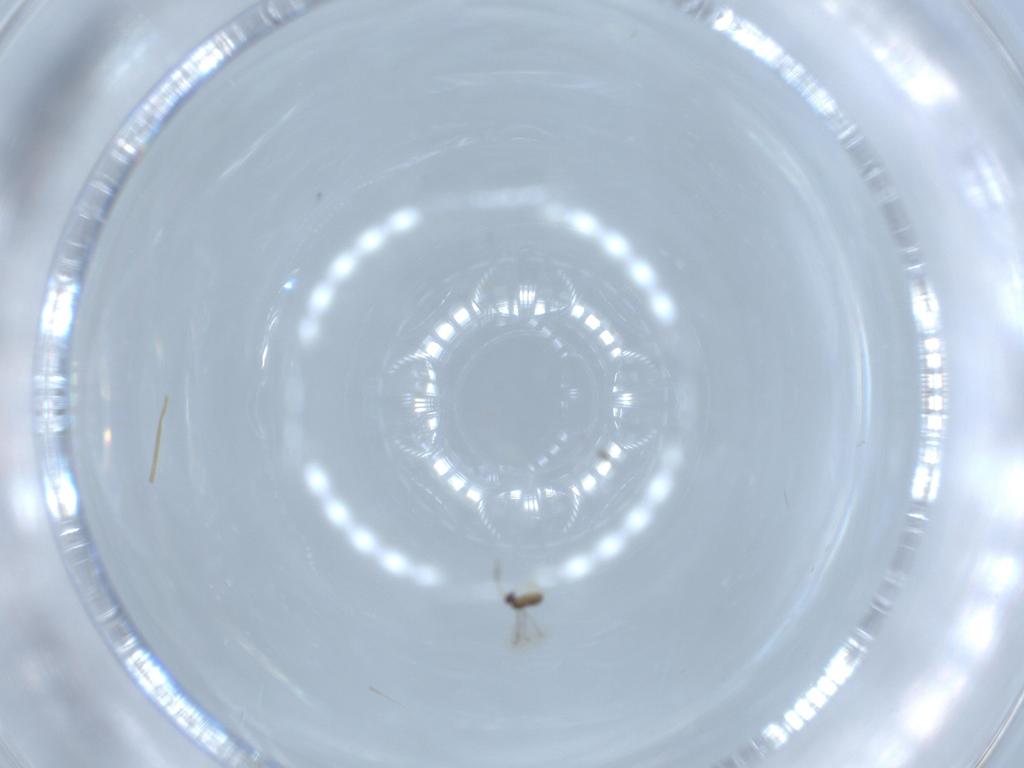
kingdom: Animalia
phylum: Arthropoda
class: Insecta
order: Hymenoptera
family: Mymaridae
